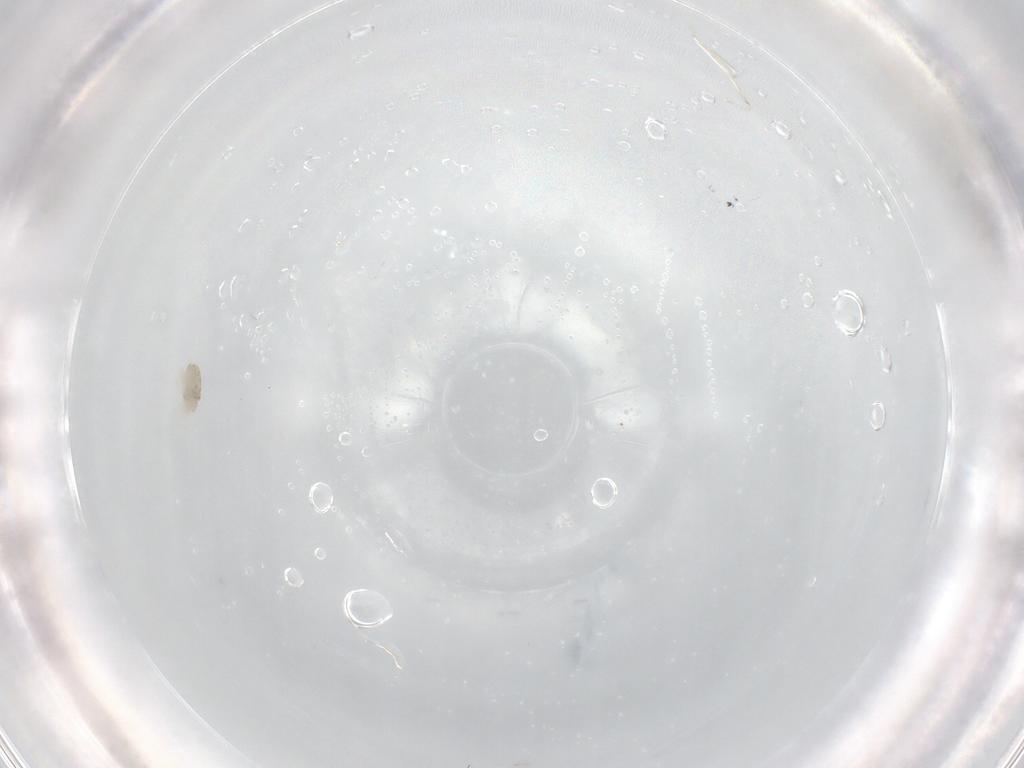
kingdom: Animalia
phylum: Arthropoda
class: Arachnida
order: Trombidiformes
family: Eupodidae
